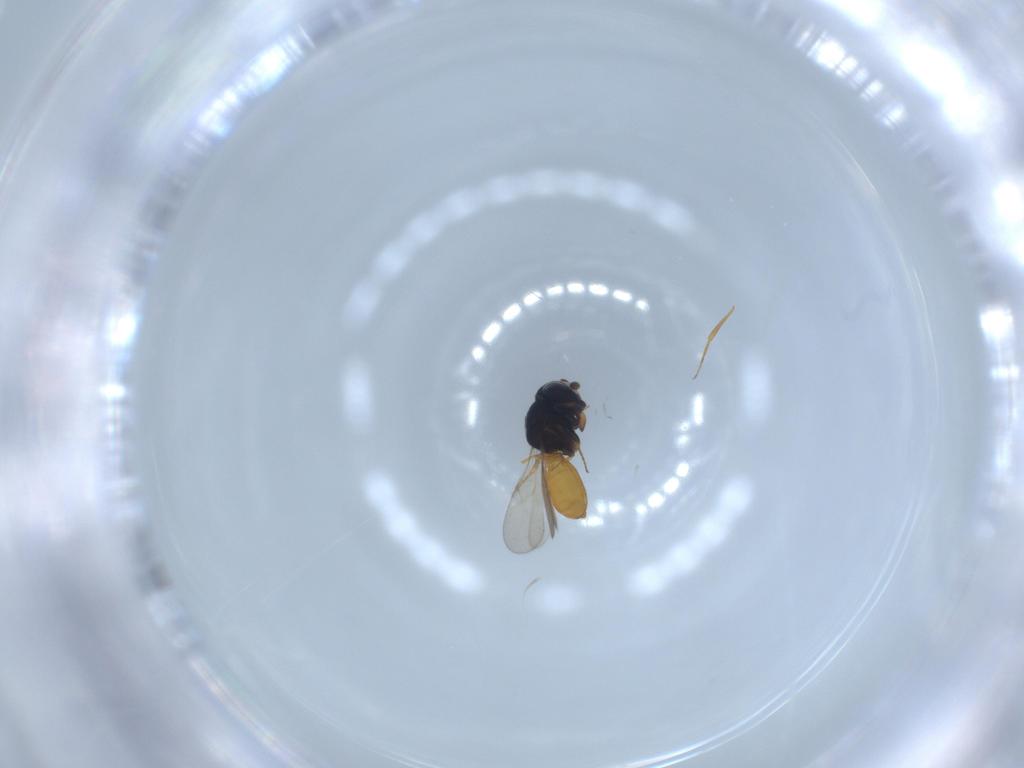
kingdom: Animalia
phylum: Arthropoda
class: Insecta
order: Hymenoptera
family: Scelionidae
